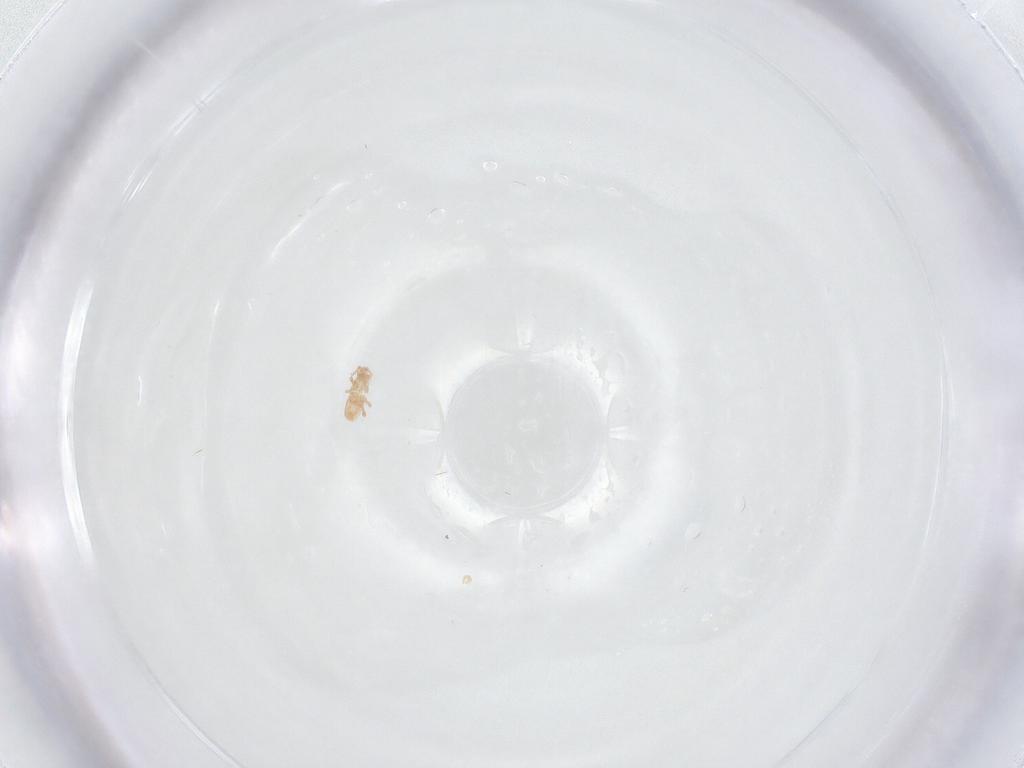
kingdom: Animalia
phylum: Arthropoda
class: Arachnida
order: Mesostigmata
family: Ascidae
